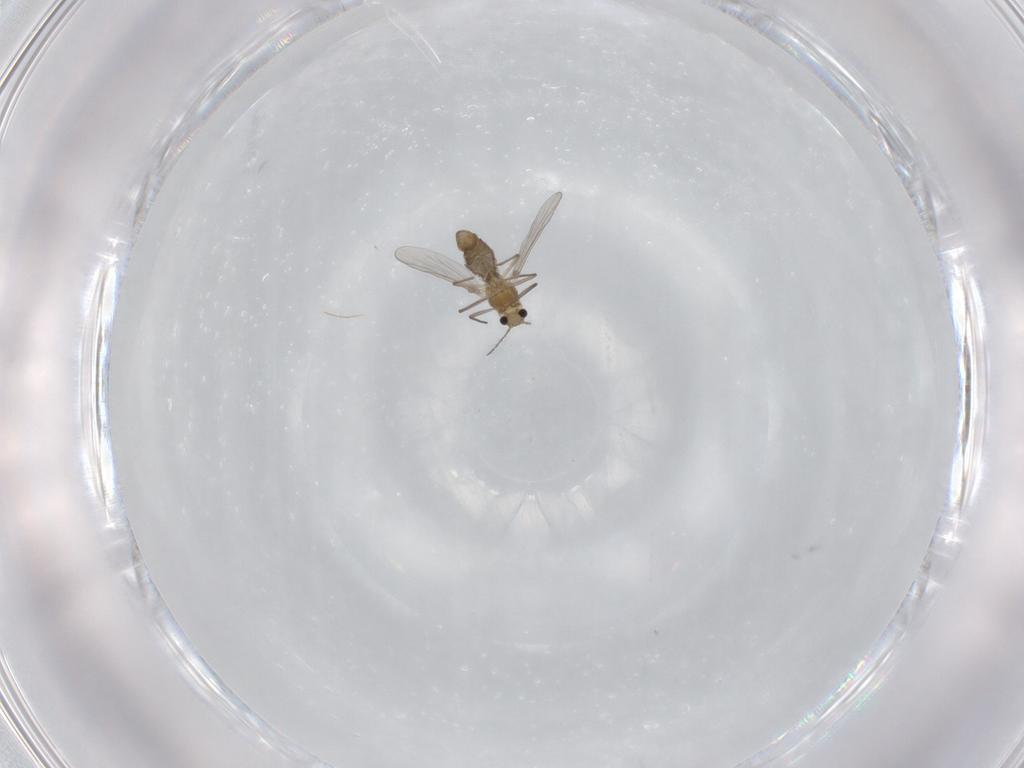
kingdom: Animalia
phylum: Arthropoda
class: Insecta
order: Diptera
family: Chironomidae
